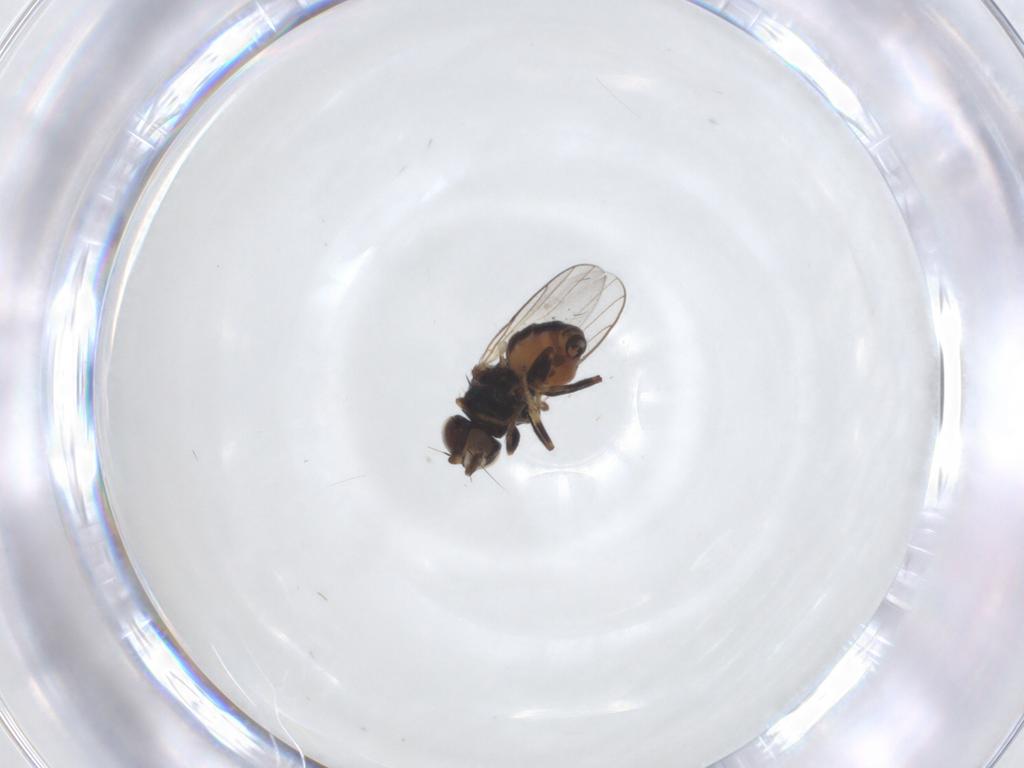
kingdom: Animalia
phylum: Arthropoda
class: Insecta
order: Diptera
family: Chloropidae
